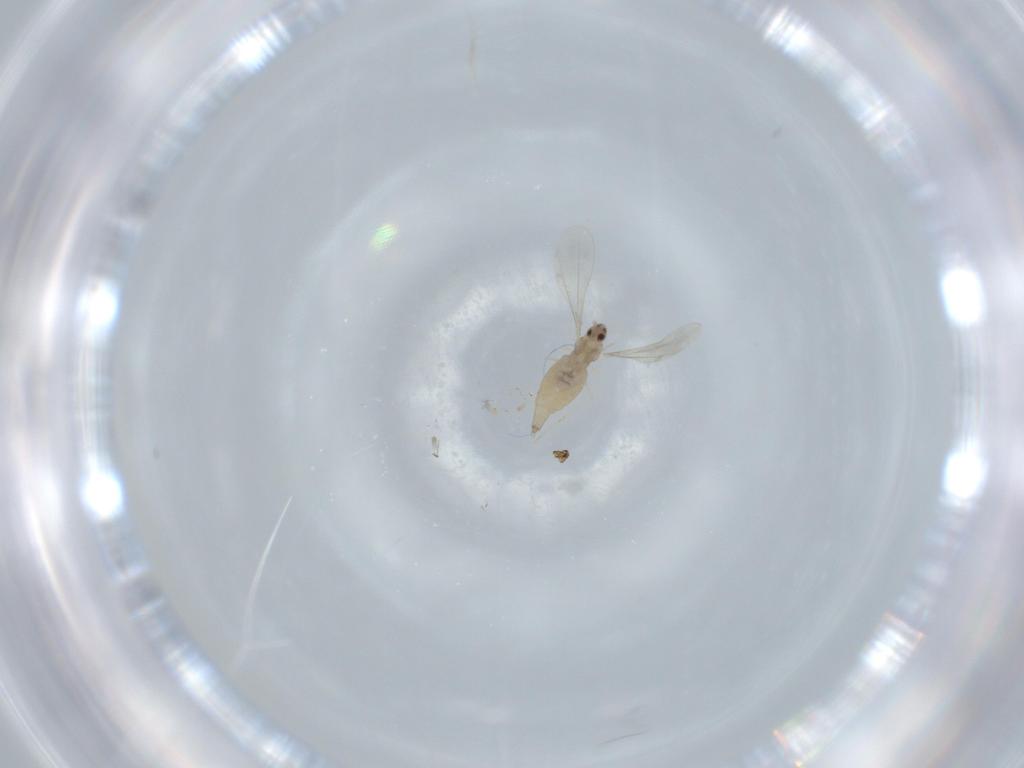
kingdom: Animalia
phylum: Arthropoda
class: Insecta
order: Diptera
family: Cecidomyiidae
